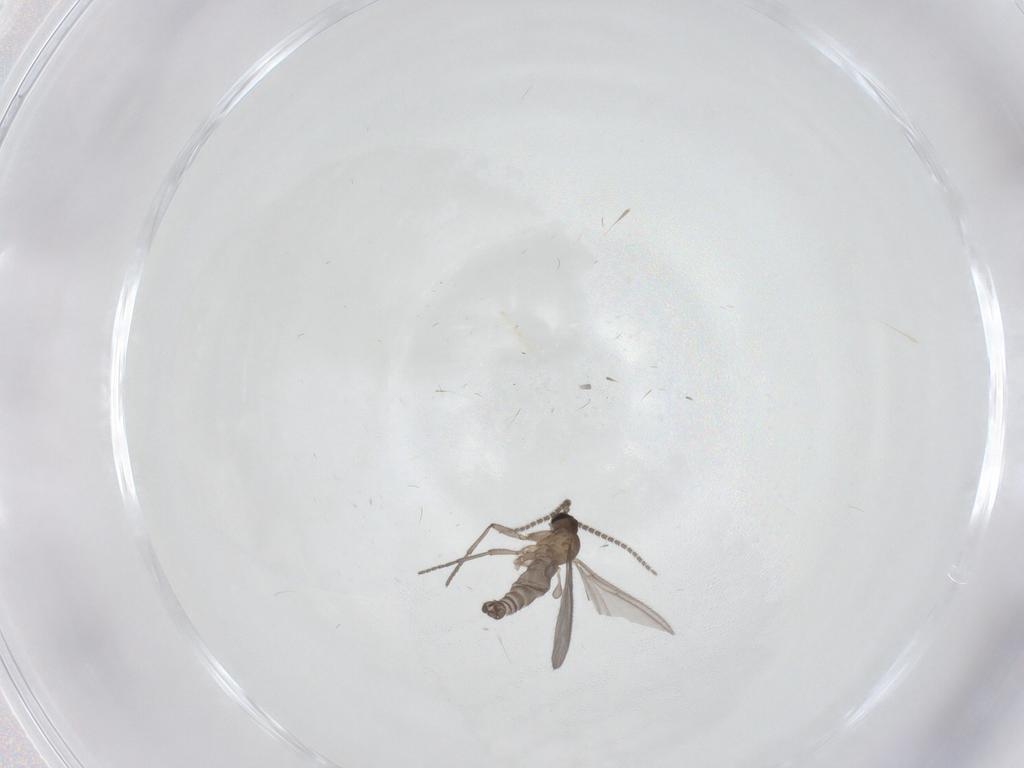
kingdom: Animalia
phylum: Arthropoda
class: Insecta
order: Diptera
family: Sciaridae
